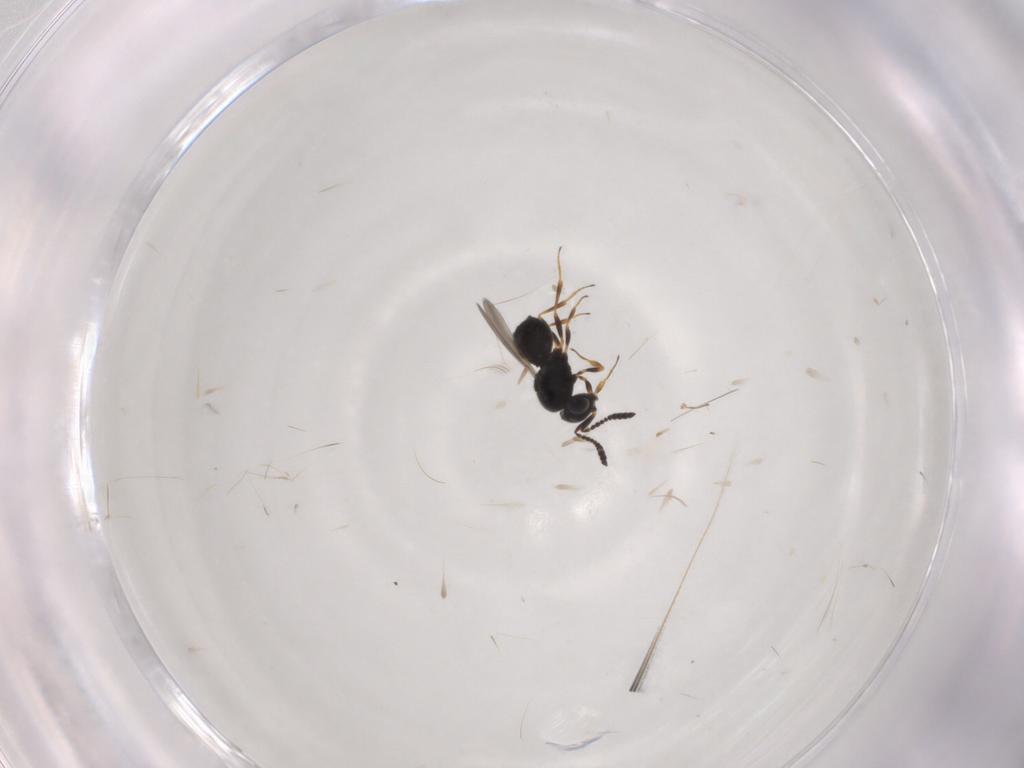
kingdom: Animalia
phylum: Arthropoda
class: Insecta
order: Hymenoptera
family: Scelionidae
